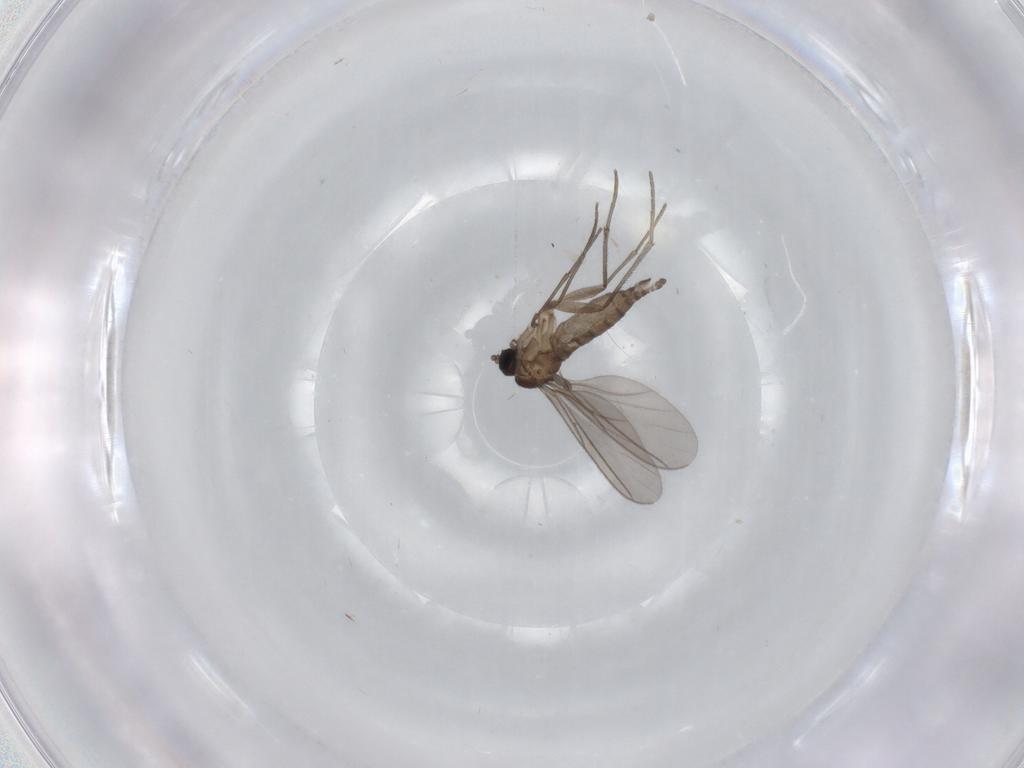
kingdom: Animalia
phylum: Arthropoda
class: Insecta
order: Diptera
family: Sciaridae
